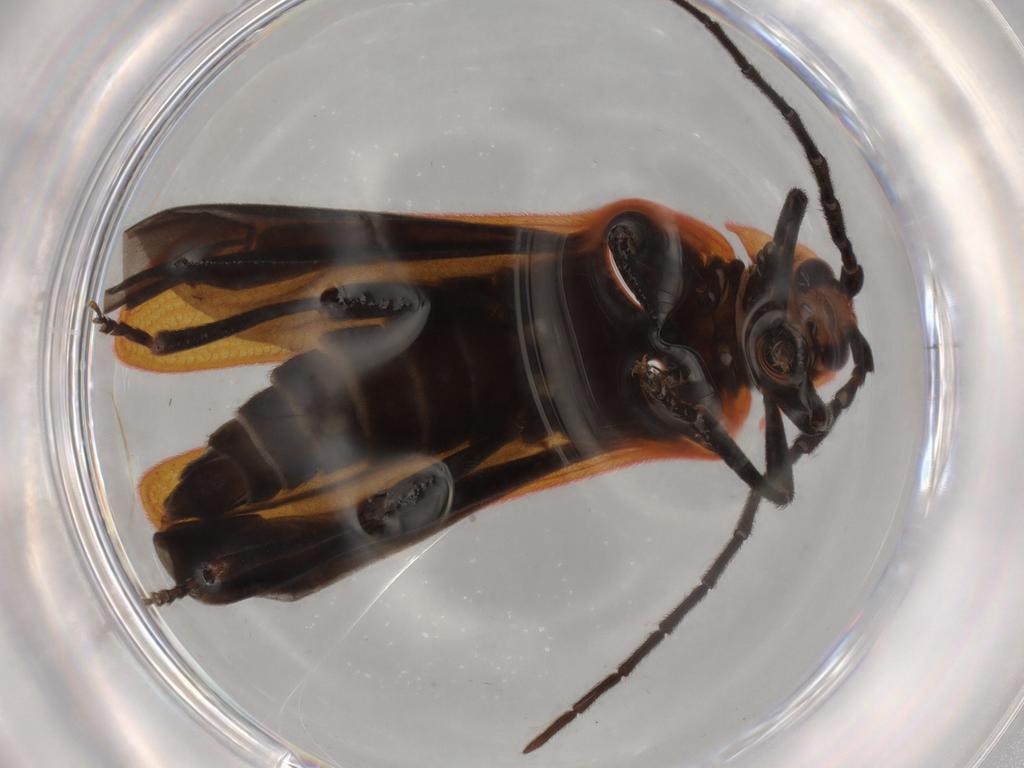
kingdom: Animalia
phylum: Arthropoda
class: Insecta
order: Coleoptera
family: Lycidae
